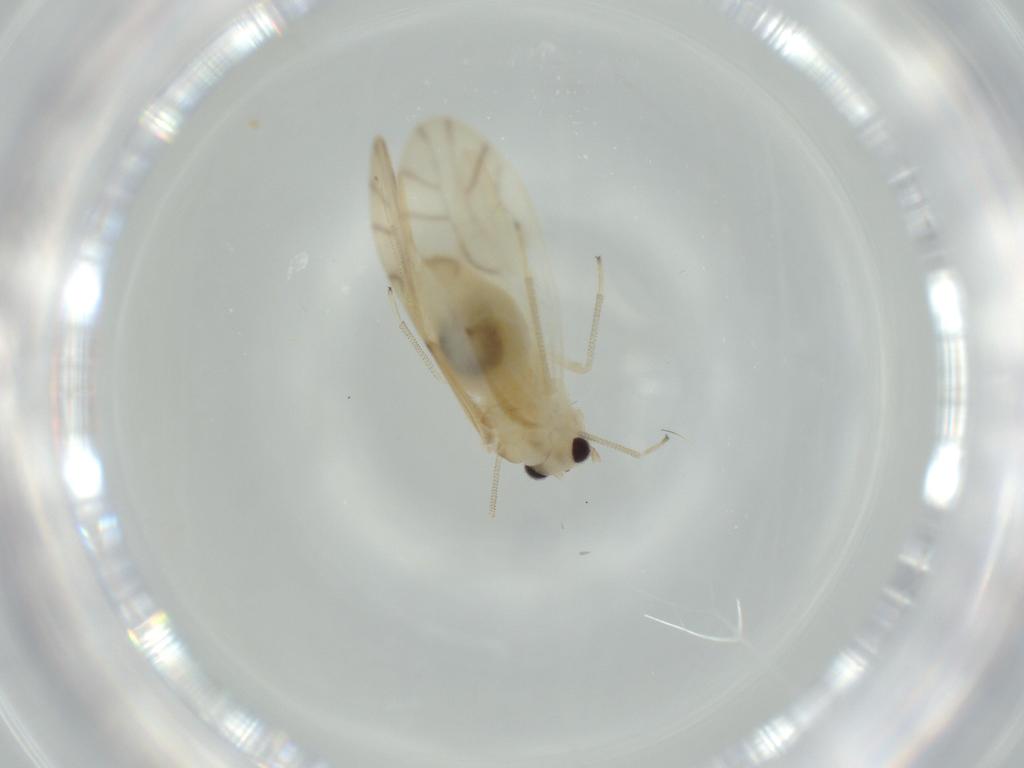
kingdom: Animalia
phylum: Arthropoda
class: Insecta
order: Psocodea
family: Caeciliusidae
